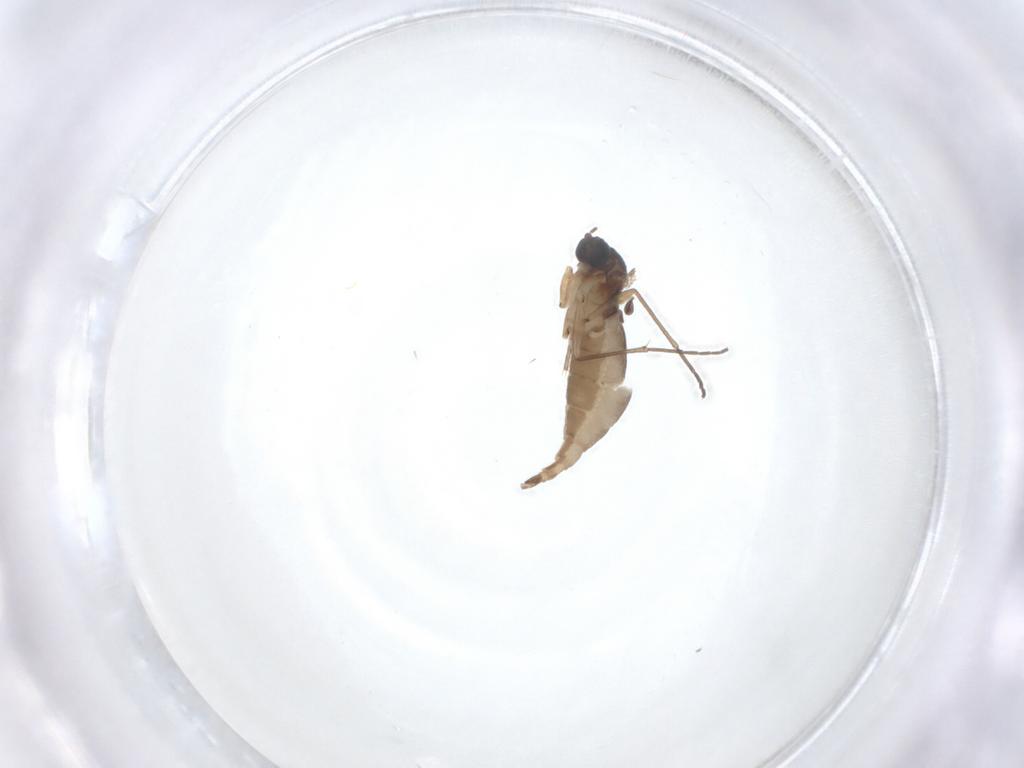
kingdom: Animalia
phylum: Arthropoda
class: Insecta
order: Diptera
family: Sciaridae
